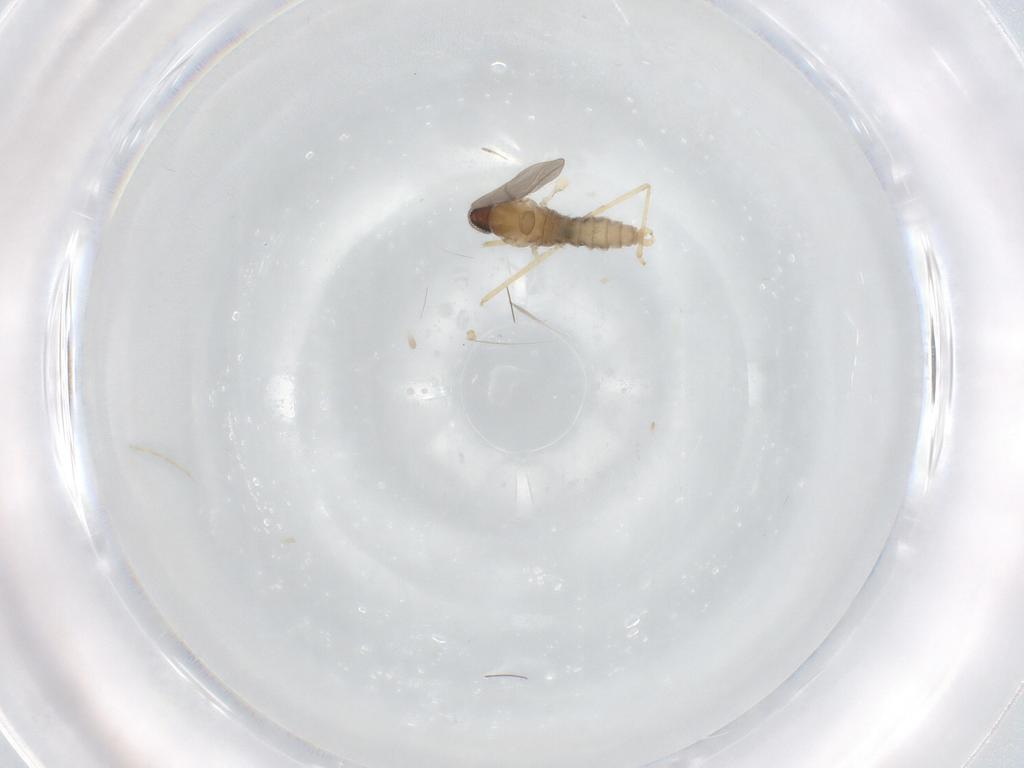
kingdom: Animalia
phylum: Arthropoda
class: Insecta
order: Diptera
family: Cecidomyiidae
